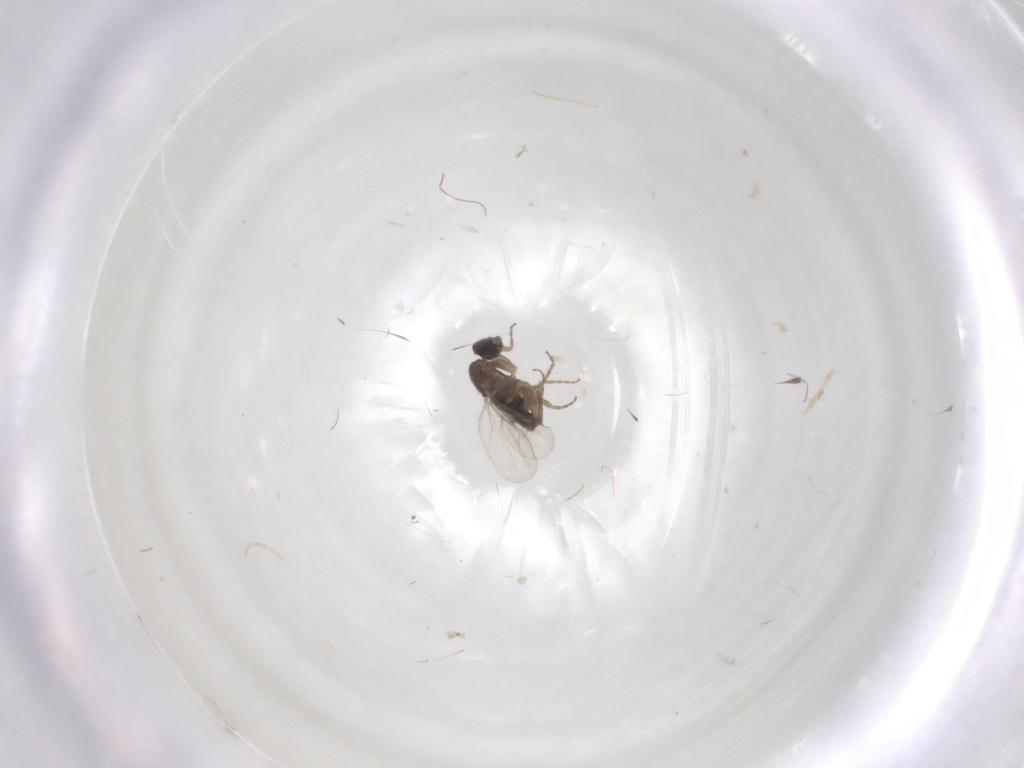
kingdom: Animalia
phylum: Arthropoda
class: Insecta
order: Diptera
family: Phoridae
